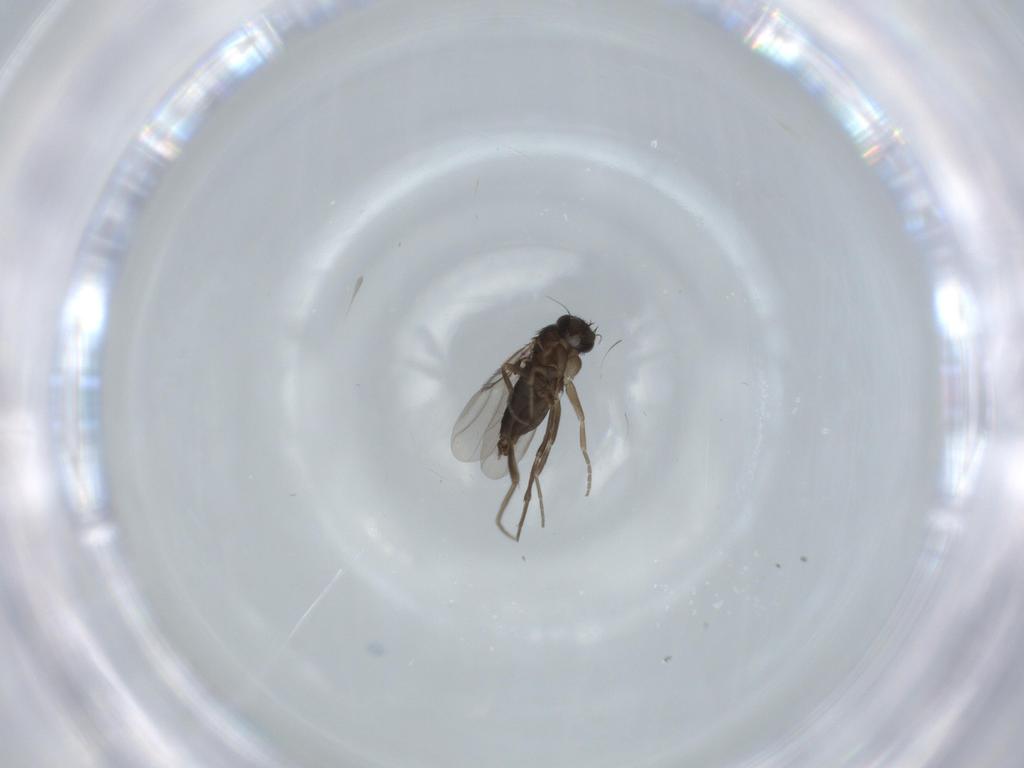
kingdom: Animalia
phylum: Arthropoda
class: Insecta
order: Diptera
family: Phoridae
